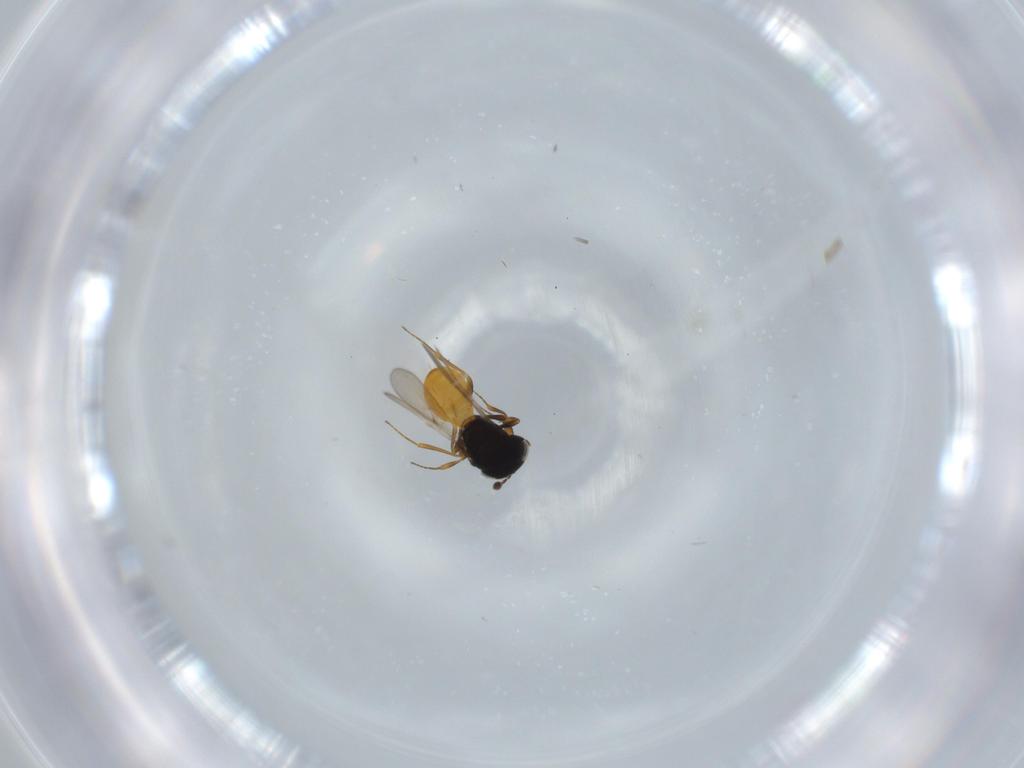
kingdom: Animalia
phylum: Arthropoda
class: Insecta
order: Hymenoptera
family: Scelionidae
